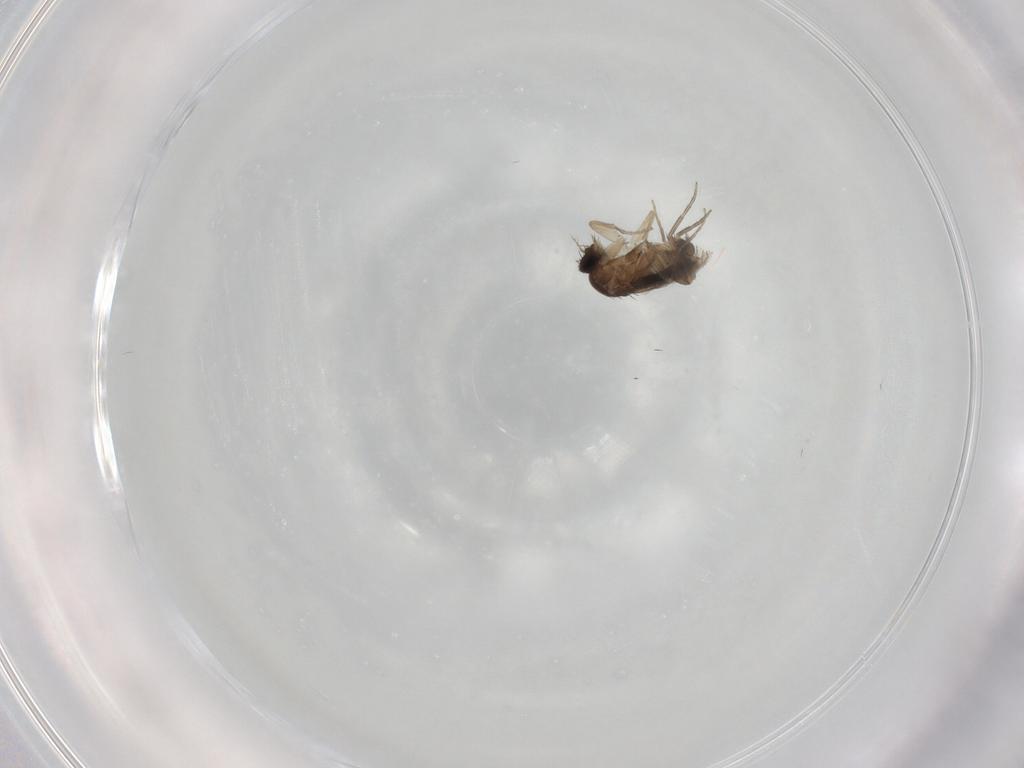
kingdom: Animalia
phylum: Arthropoda
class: Insecta
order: Diptera
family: Phoridae
